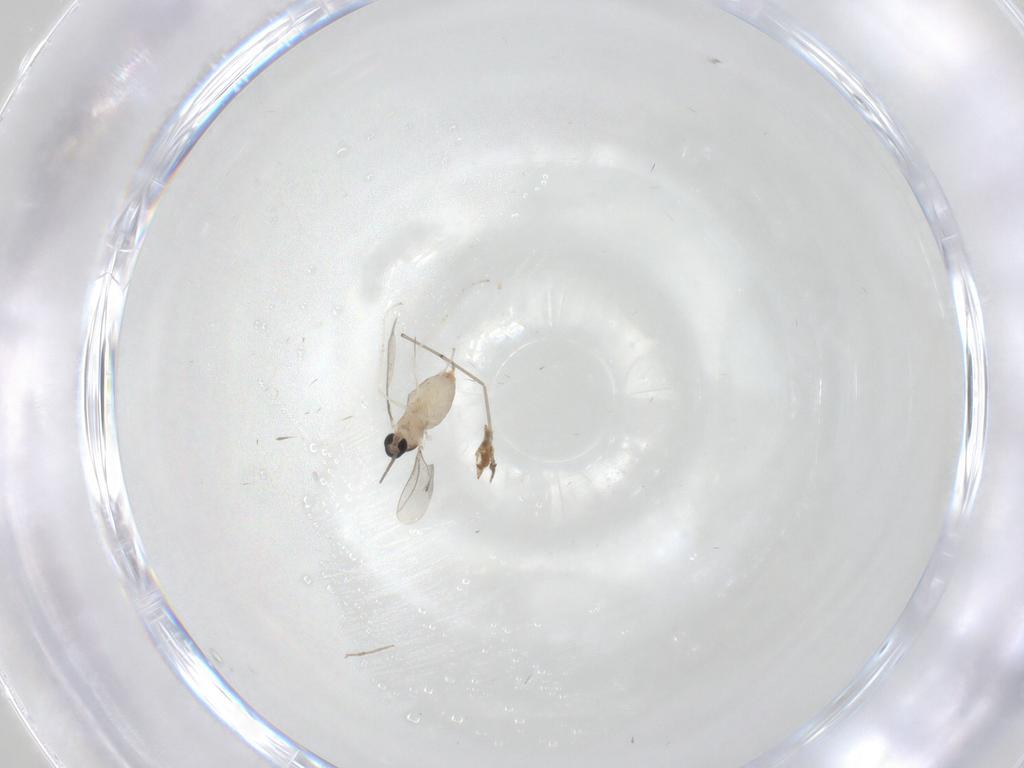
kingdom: Animalia
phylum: Arthropoda
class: Insecta
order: Diptera
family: Cecidomyiidae
